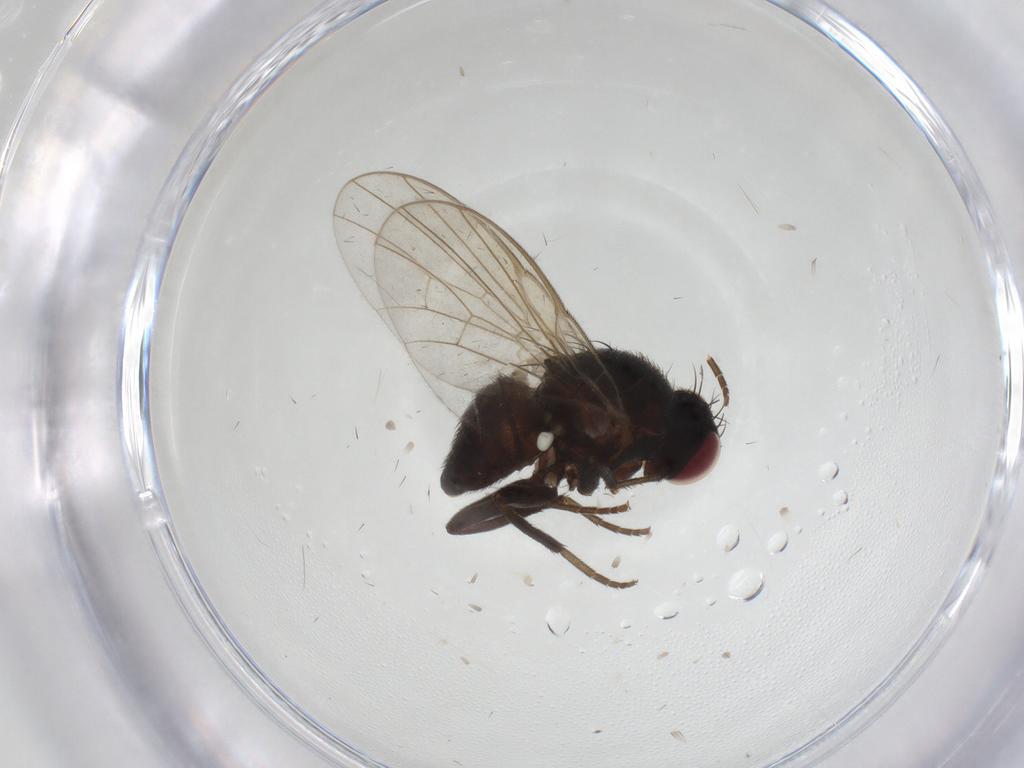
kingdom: Animalia
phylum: Arthropoda
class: Insecta
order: Diptera
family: Chironomidae
